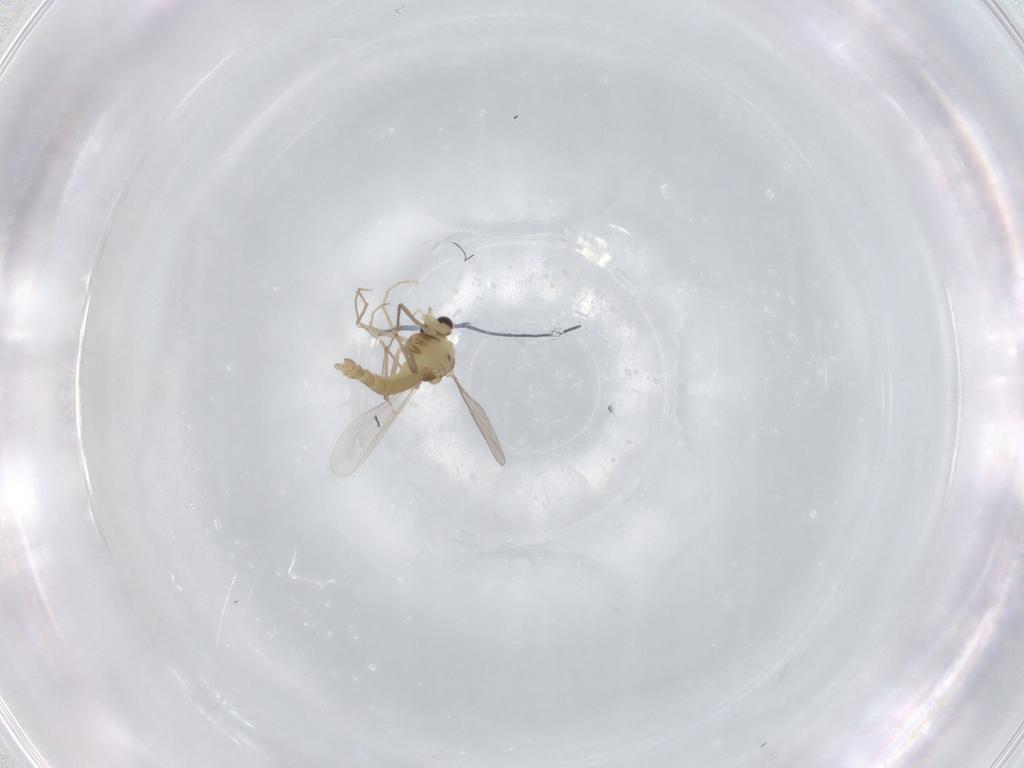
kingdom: Animalia
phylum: Arthropoda
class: Insecta
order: Diptera
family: Chironomidae
